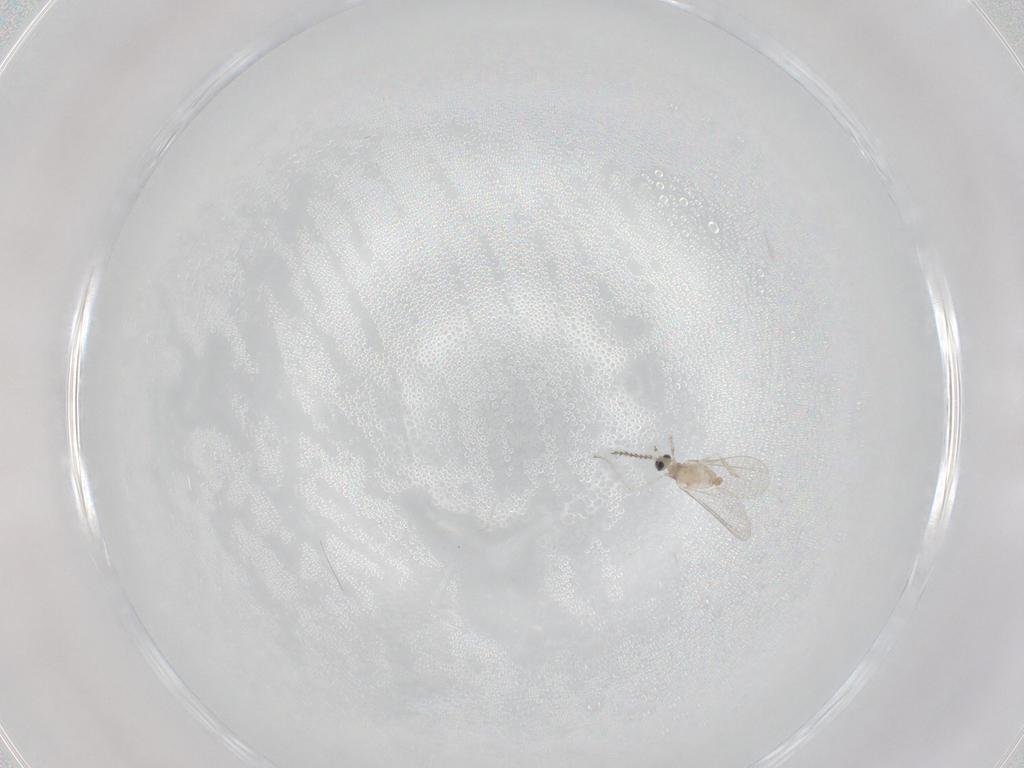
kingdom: Animalia
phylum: Arthropoda
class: Insecta
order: Diptera
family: Cecidomyiidae
